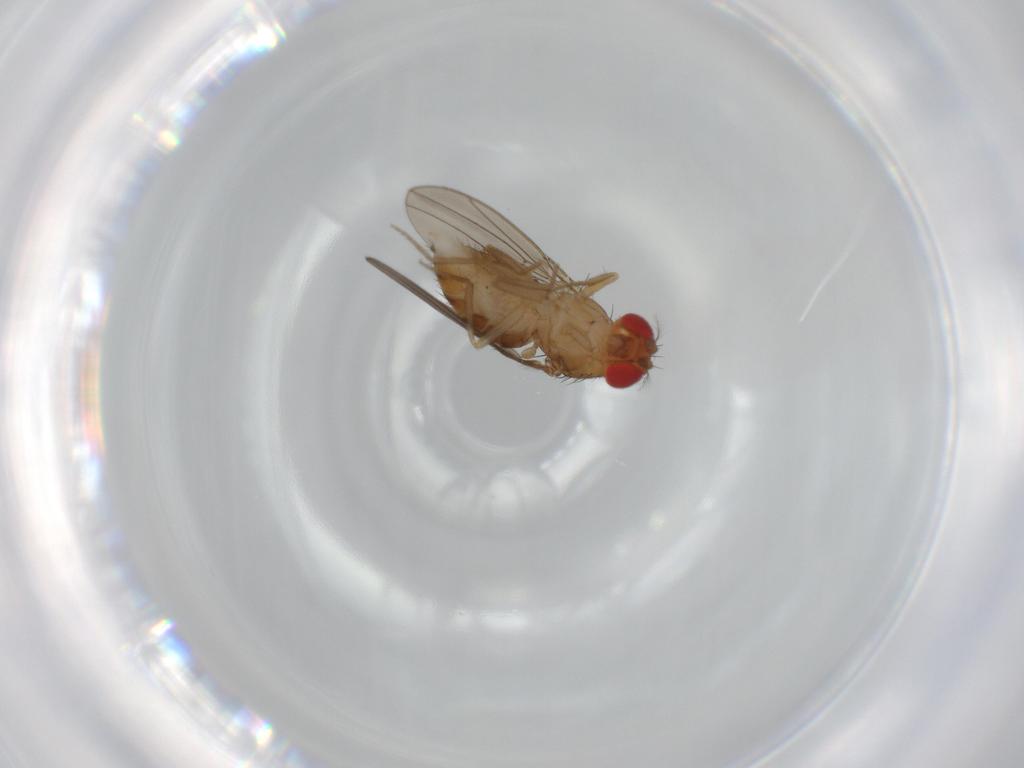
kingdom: Animalia
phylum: Arthropoda
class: Insecta
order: Diptera
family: Drosophilidae
